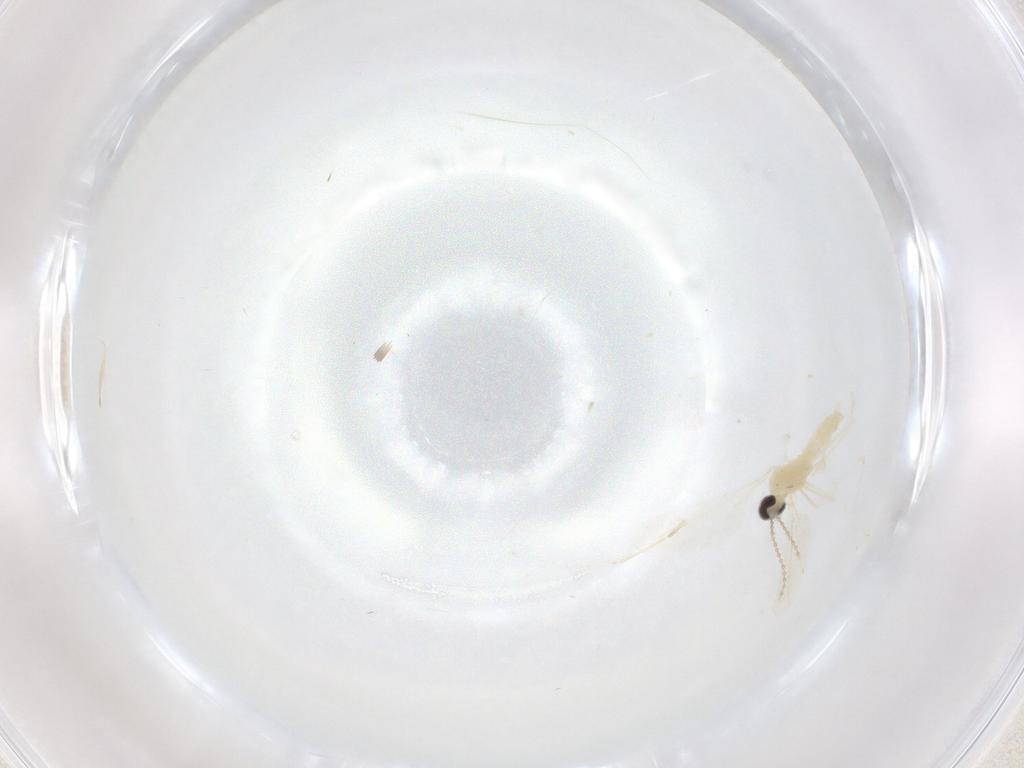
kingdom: Animalia
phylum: Arthropoda
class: Insecta
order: Diptera
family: Cecidomyiidae
